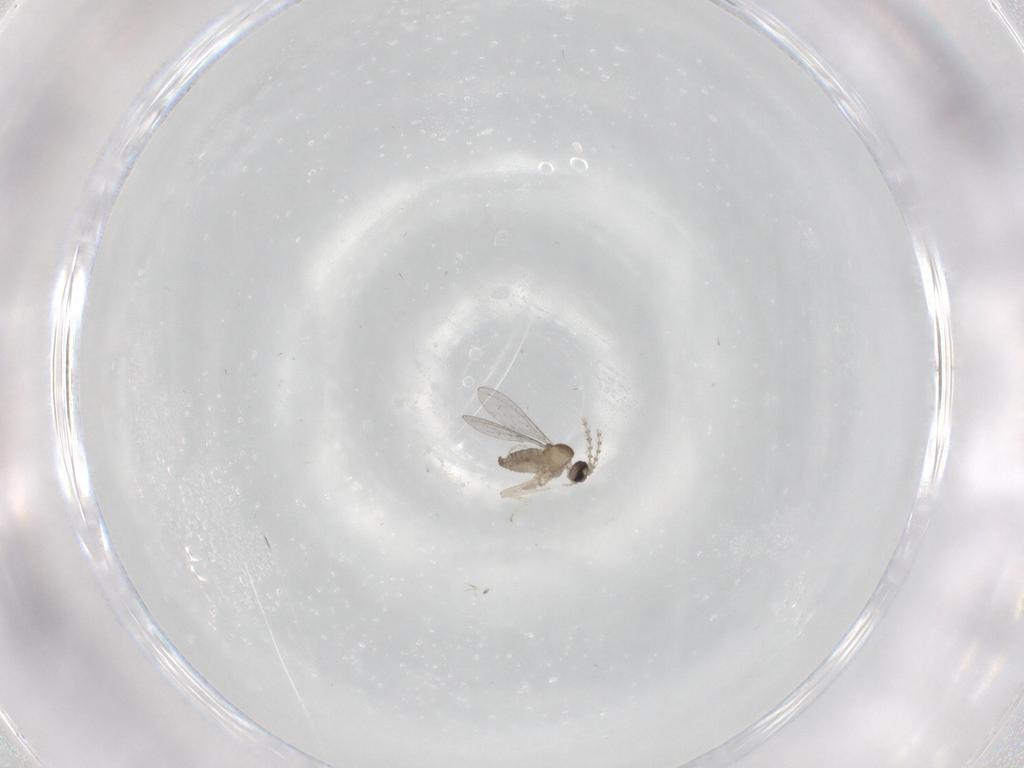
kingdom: Animalia
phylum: Arthropoda
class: Insecta
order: Diptera
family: Cecidomyiidae
